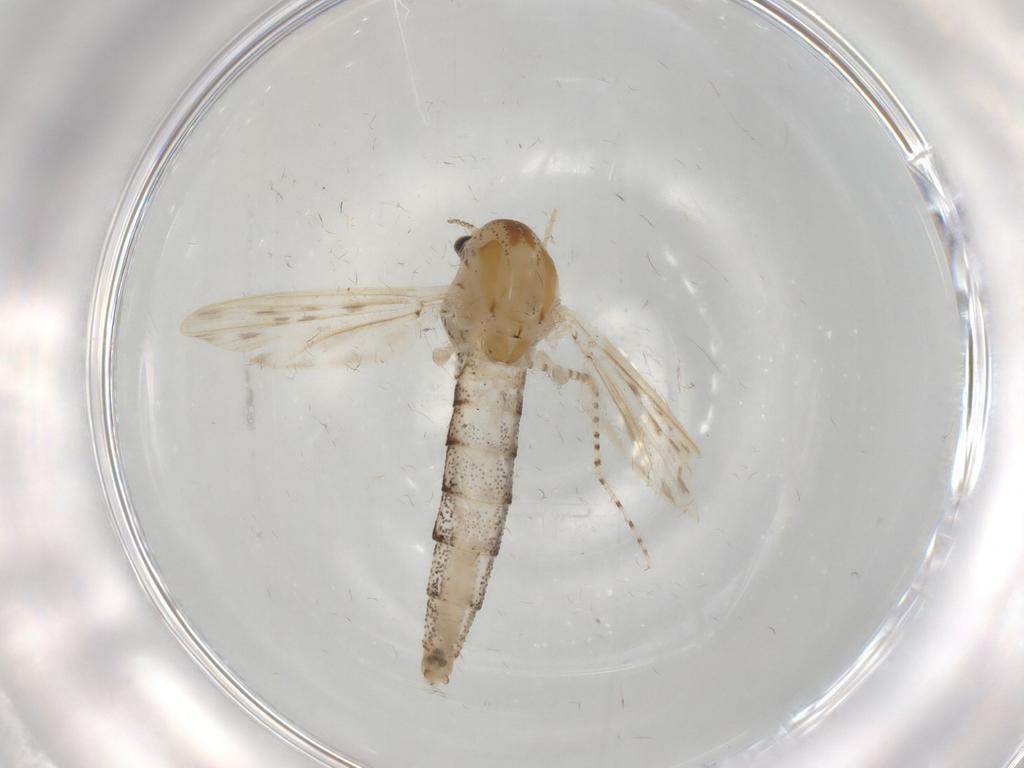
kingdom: Animalia
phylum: Arthropoda
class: Insecta
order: Diptera
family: Chaoboridae
